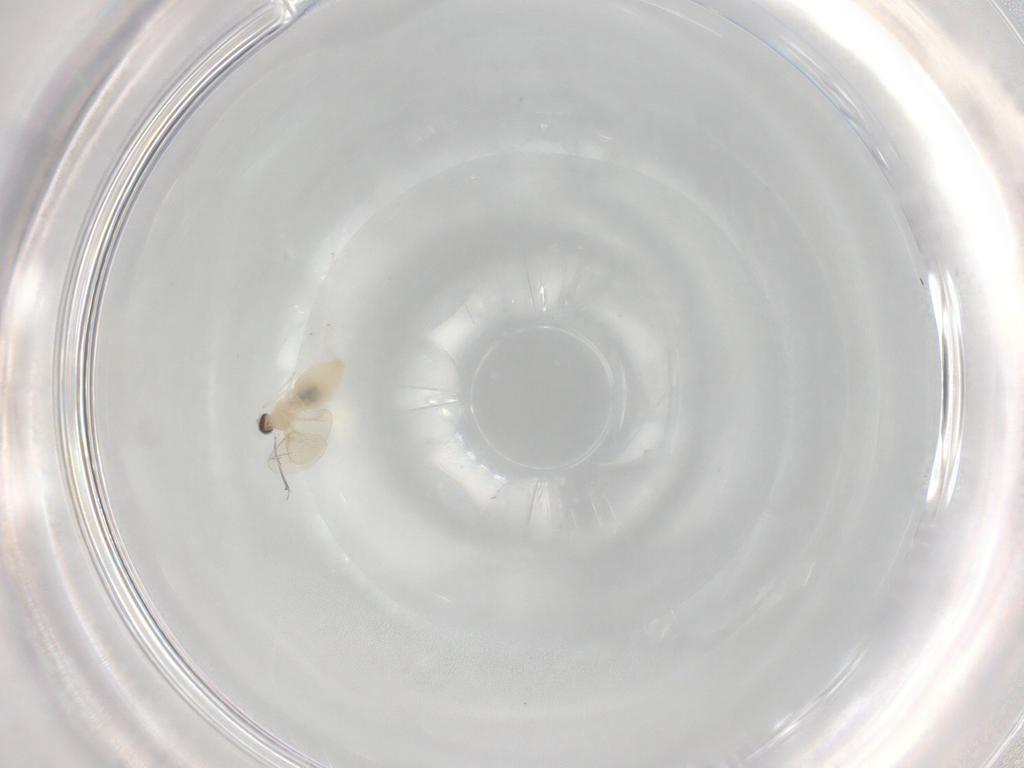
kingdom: Animalia
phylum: Arthropoda
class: Insecta
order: Diptera
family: Cecidomyiidae
